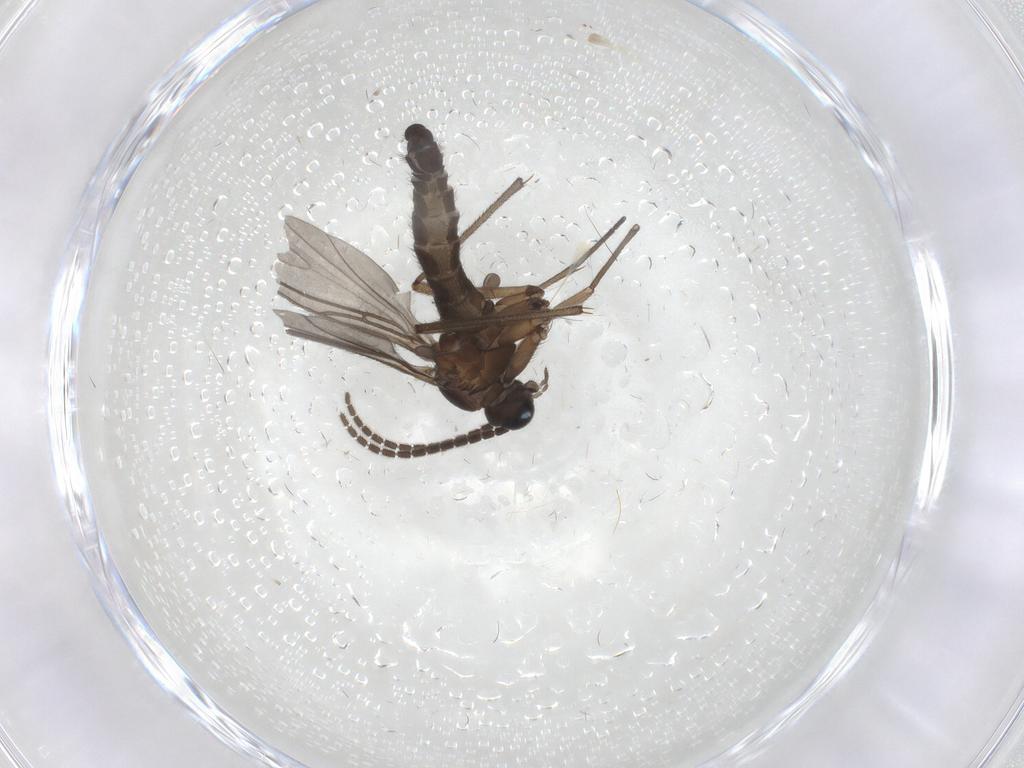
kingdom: Animalia
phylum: Arthropoda
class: Insecta
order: Diptera
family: Sciaridae
